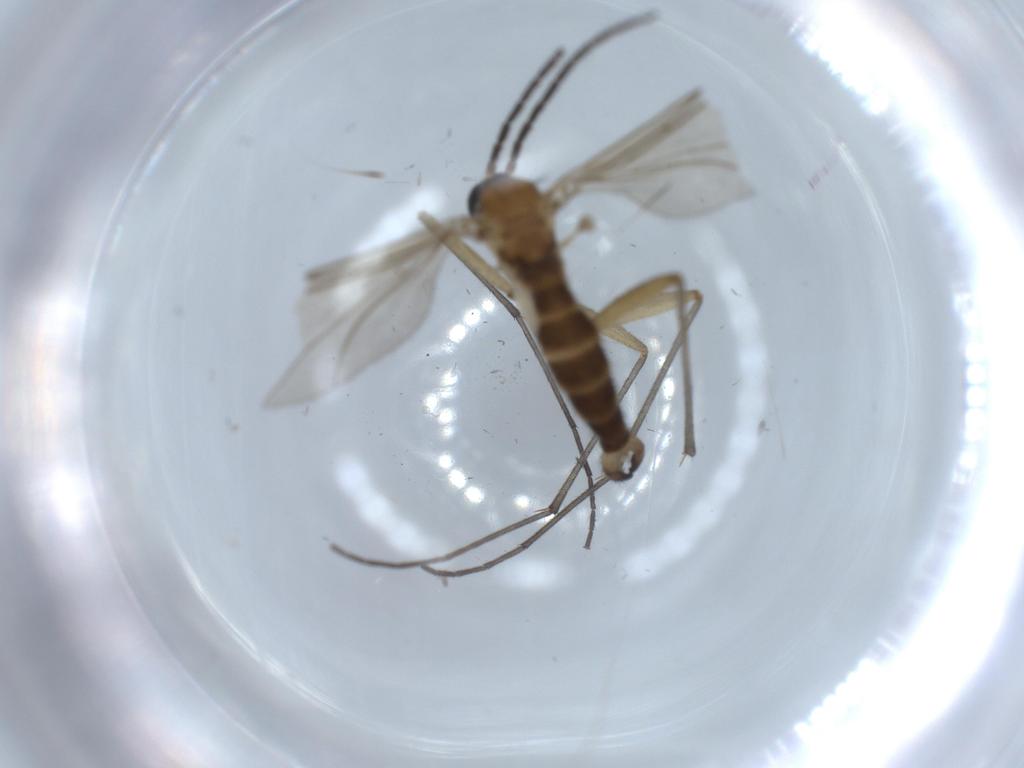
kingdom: Animalia
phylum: Arthropoda
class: Insecta
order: Diptera
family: Sciaridae
